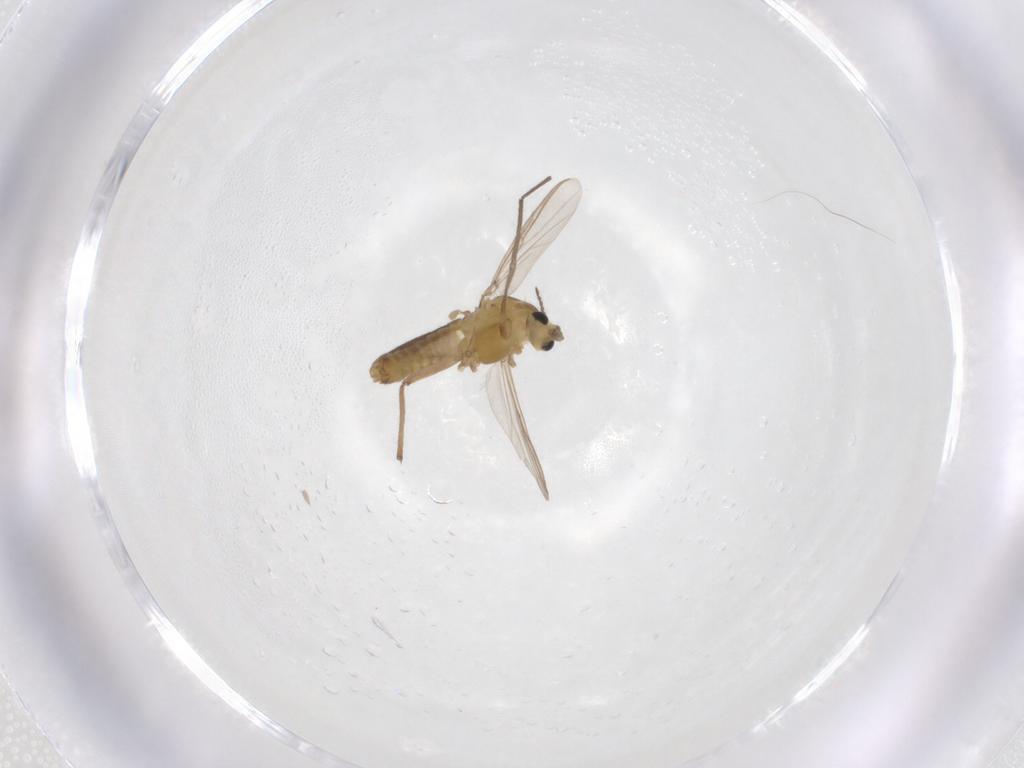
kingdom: Animalia
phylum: Arthropoda
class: Insecta
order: Diptera
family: Chironomidae
